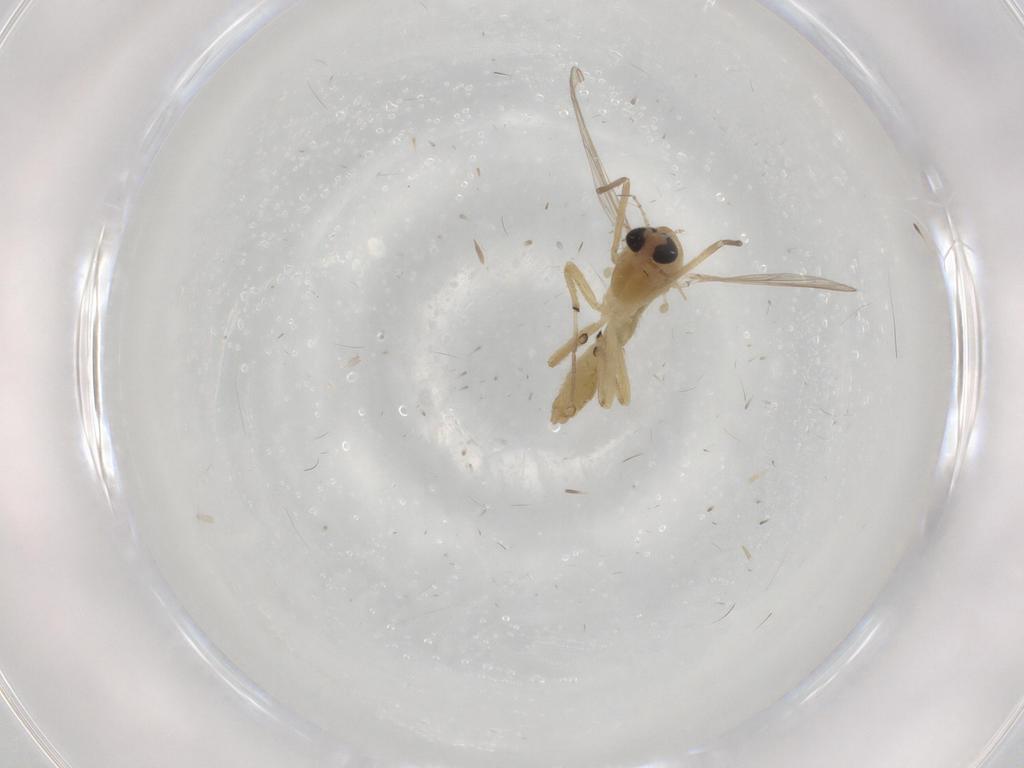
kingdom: Animalia
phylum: Arthropoda
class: Insecta
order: Diptera
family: Chironomidae
